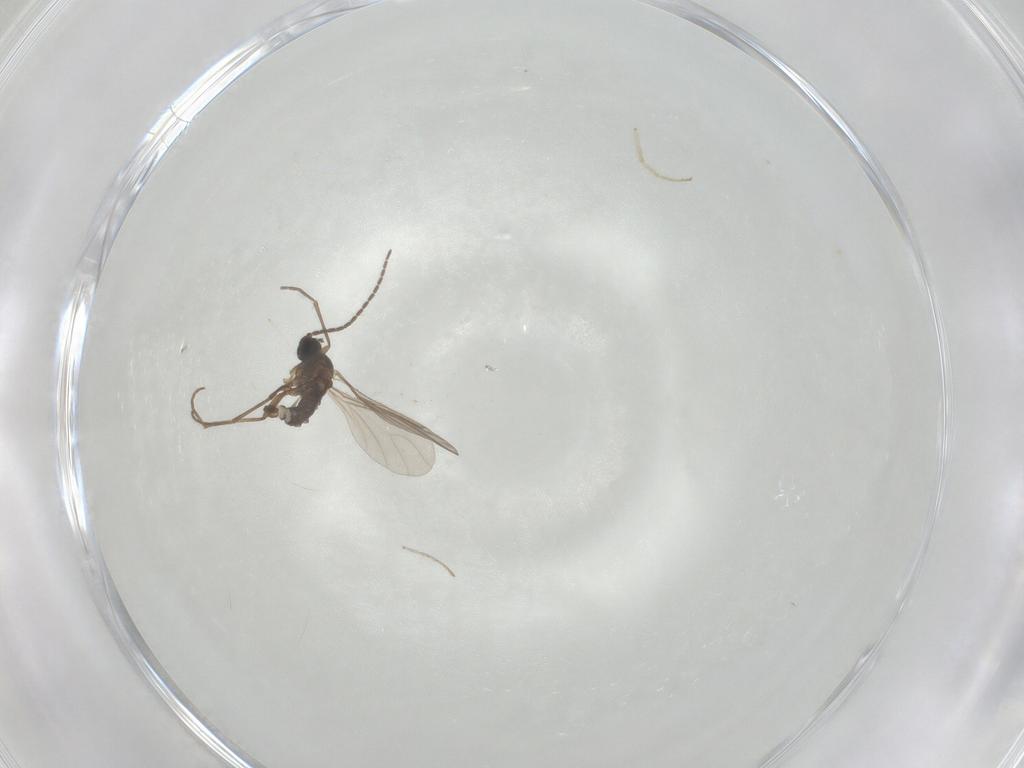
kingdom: Animalia
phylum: Arthropoda
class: Insecta
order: Diptera
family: Sciaridae
